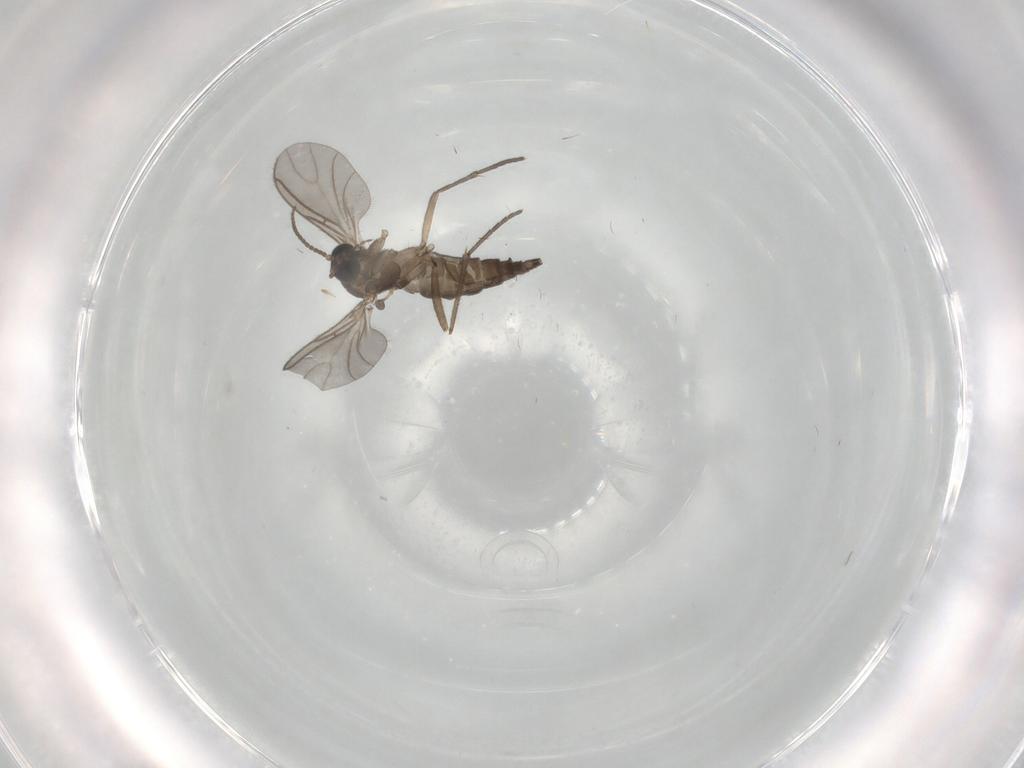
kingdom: Animalia
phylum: Arthropoda
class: Insecta
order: Diptera
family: Sciaridae
